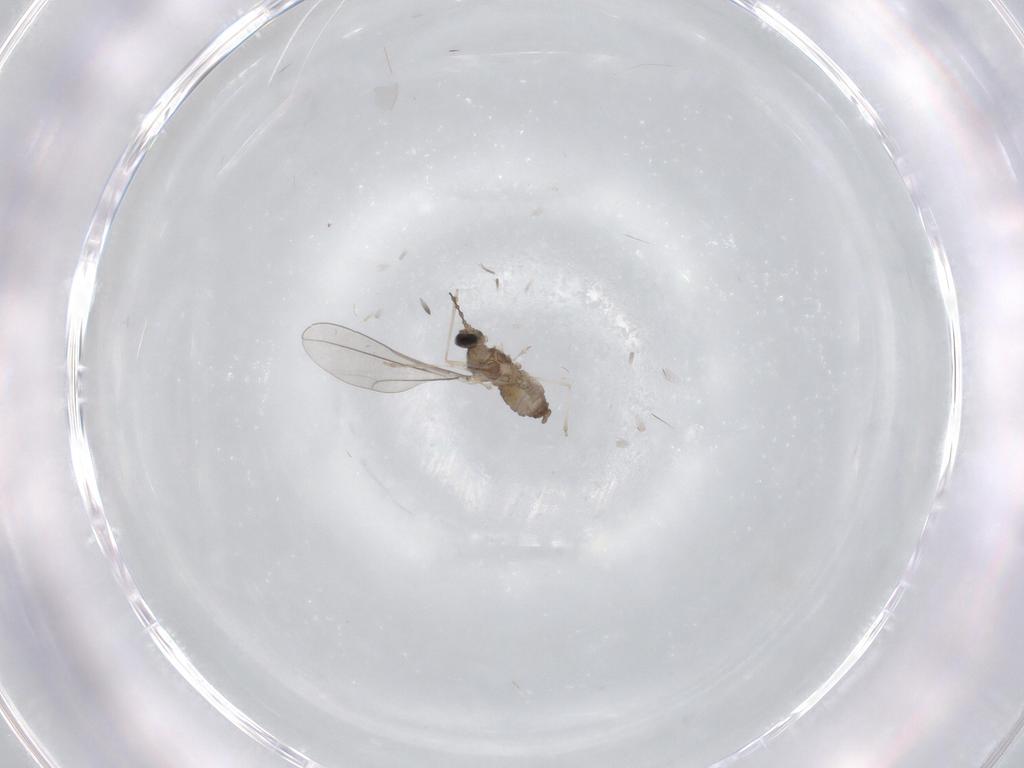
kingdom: Animalia
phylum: Arthropoda
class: Insecta
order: Diptera
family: Cecidomyiidae
